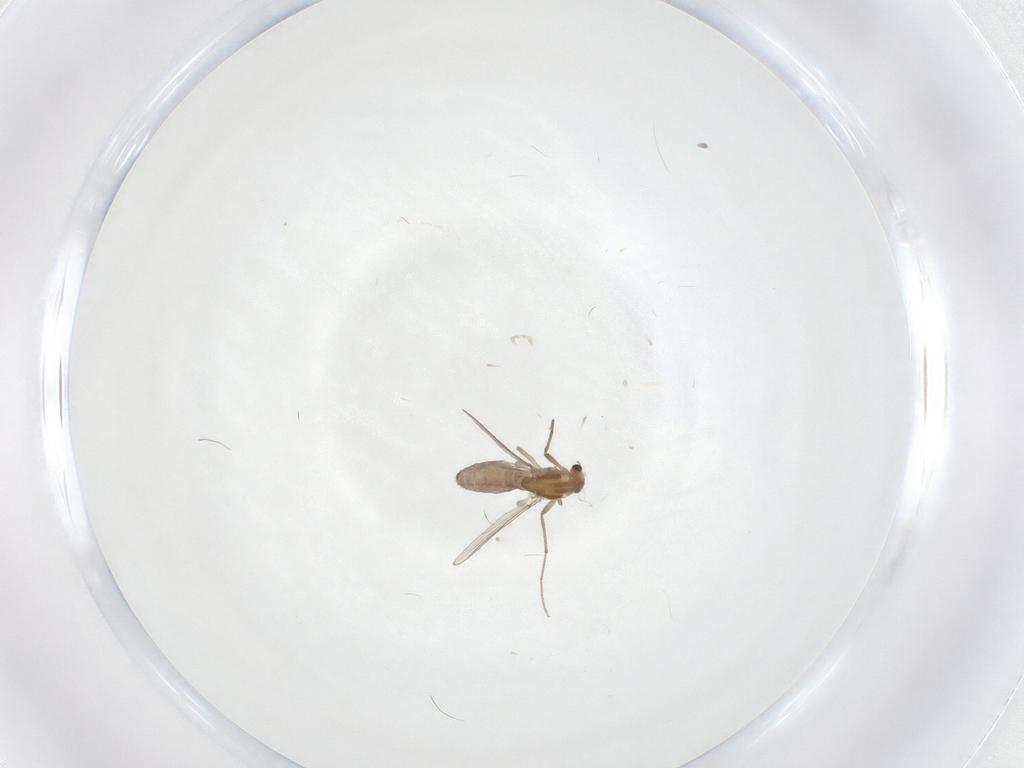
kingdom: Animalia
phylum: Arthropoda
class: Insecta
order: Diptera
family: Cecidomyiidae
